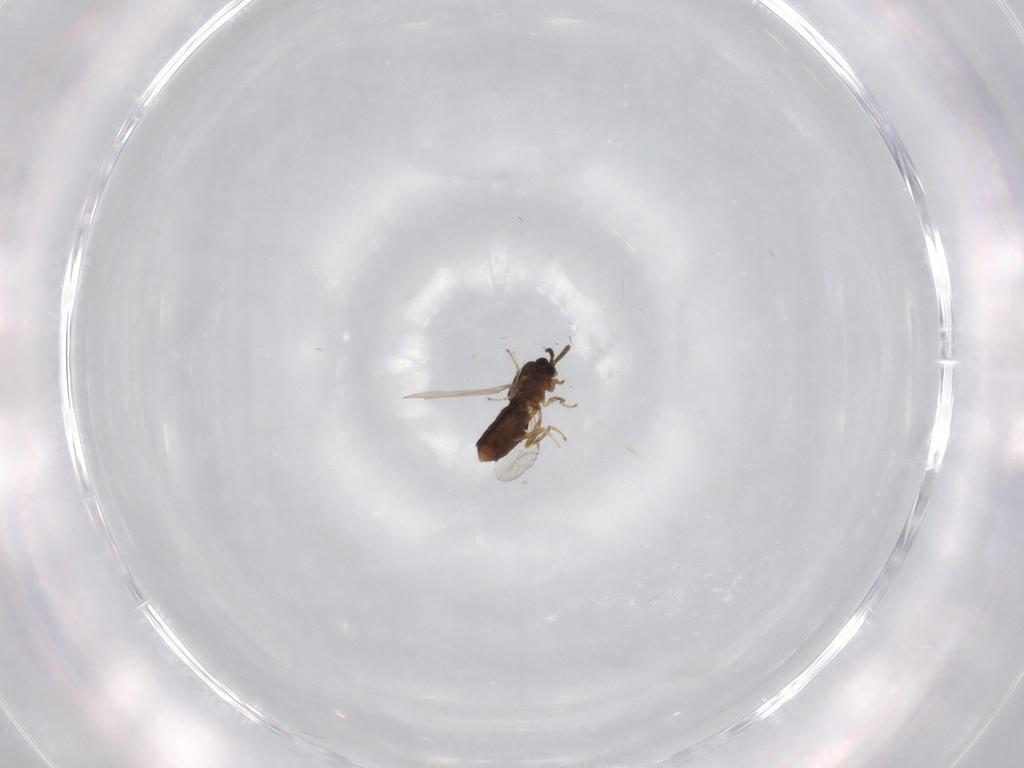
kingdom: Animalia
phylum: Arthropoda
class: Insecta
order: Diptera
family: Scatopsidae
